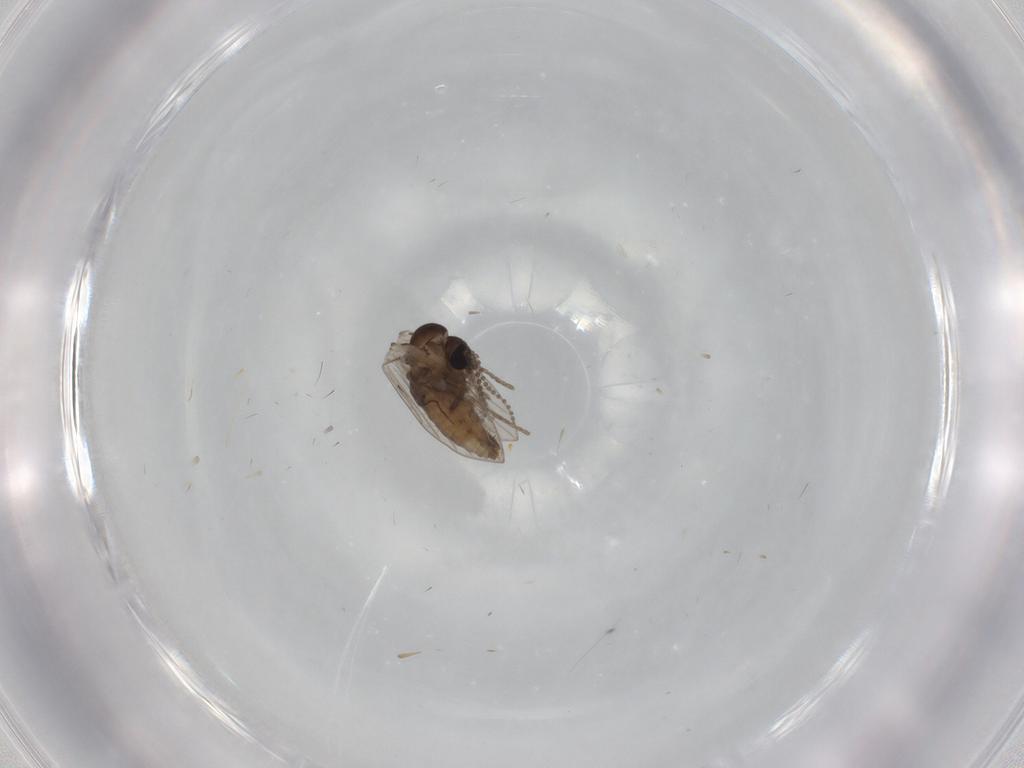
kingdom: Animalia
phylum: Arthropoda
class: Insecta
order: Diptera
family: Psychodidae
